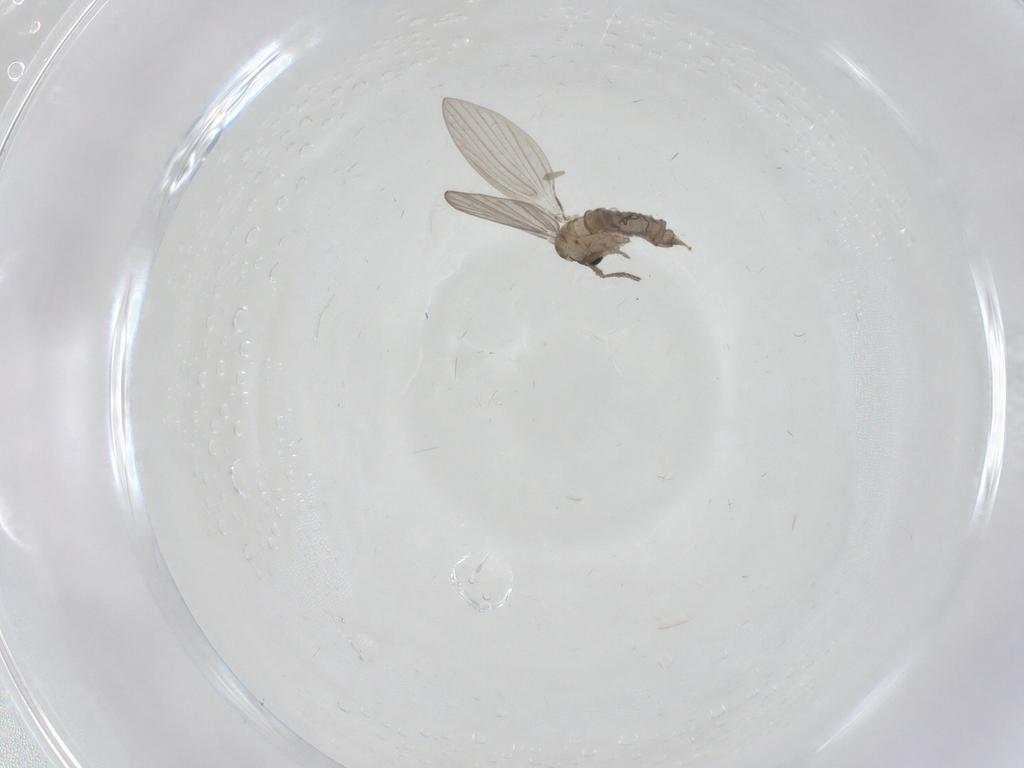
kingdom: Animalia
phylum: Arthropoda
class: Insecta
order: Diptera
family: Psychodidae
